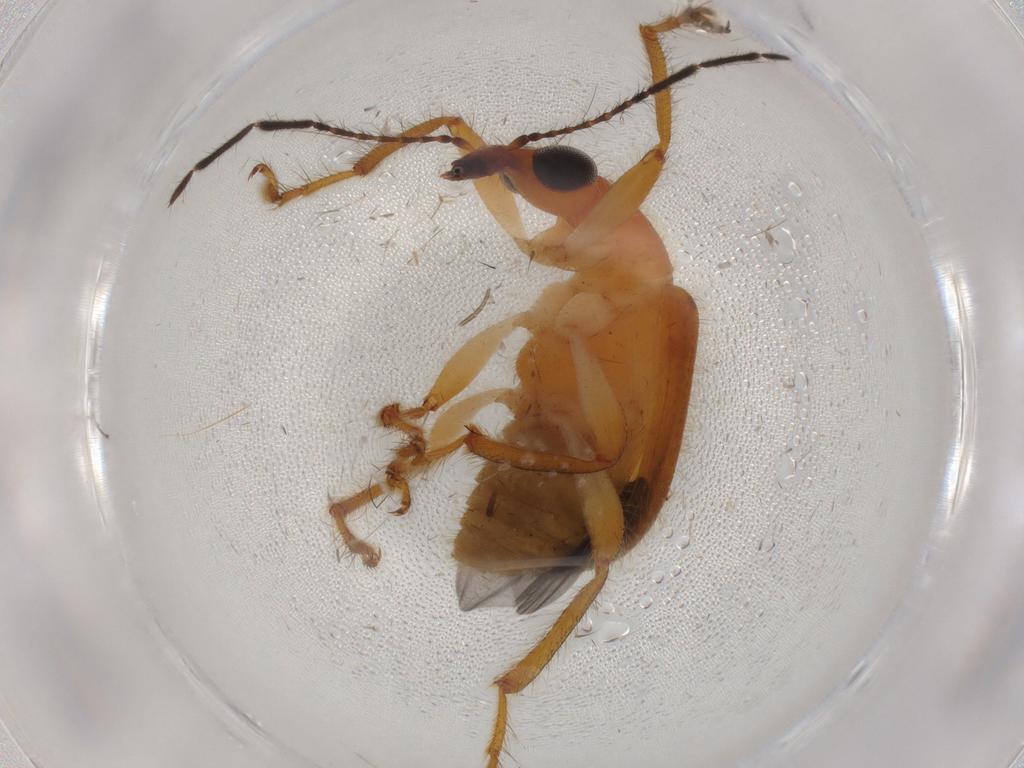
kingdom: Animalia
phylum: Arthropoda
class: Insecta
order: Coleoptera
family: Attelabidae
